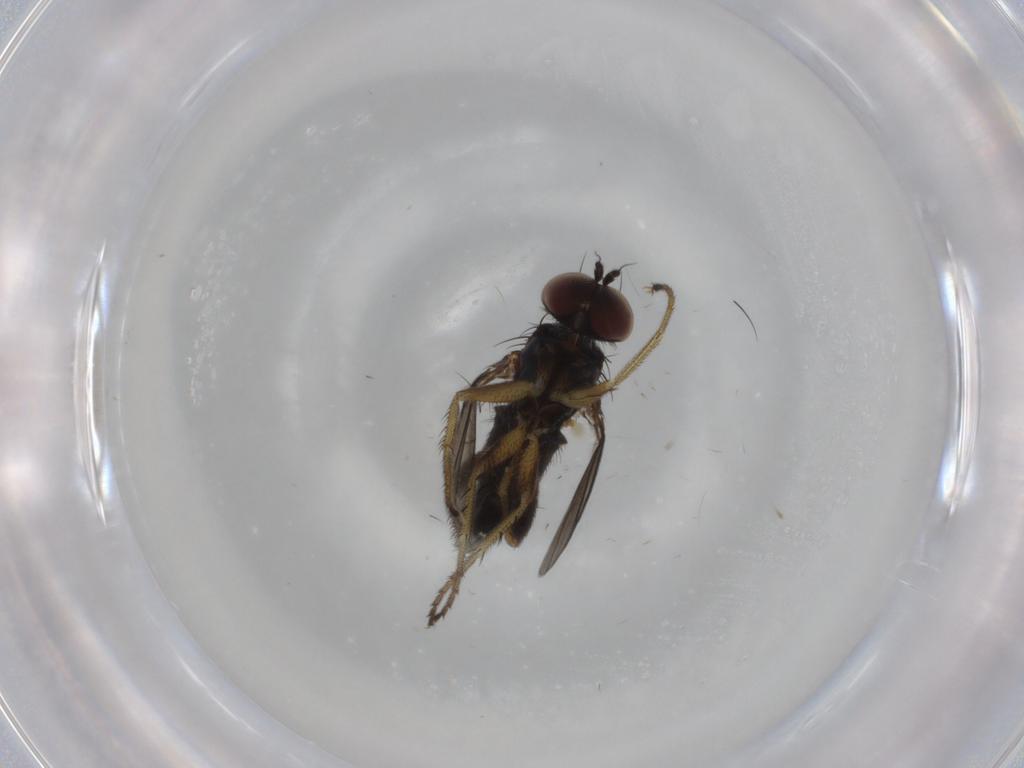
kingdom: Animalia
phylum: Arthropoda
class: Insecta
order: Diptera
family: Dolichopodidae
